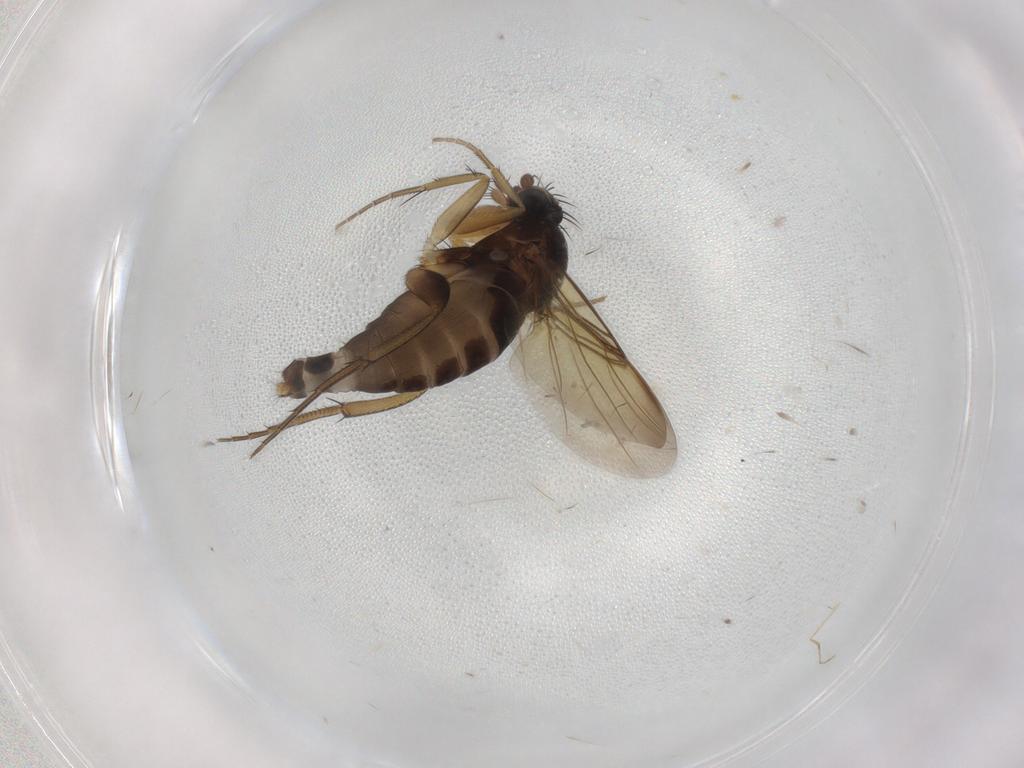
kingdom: Animalia
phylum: Arthropoda
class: Insecta
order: Diptera
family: Phoridae
